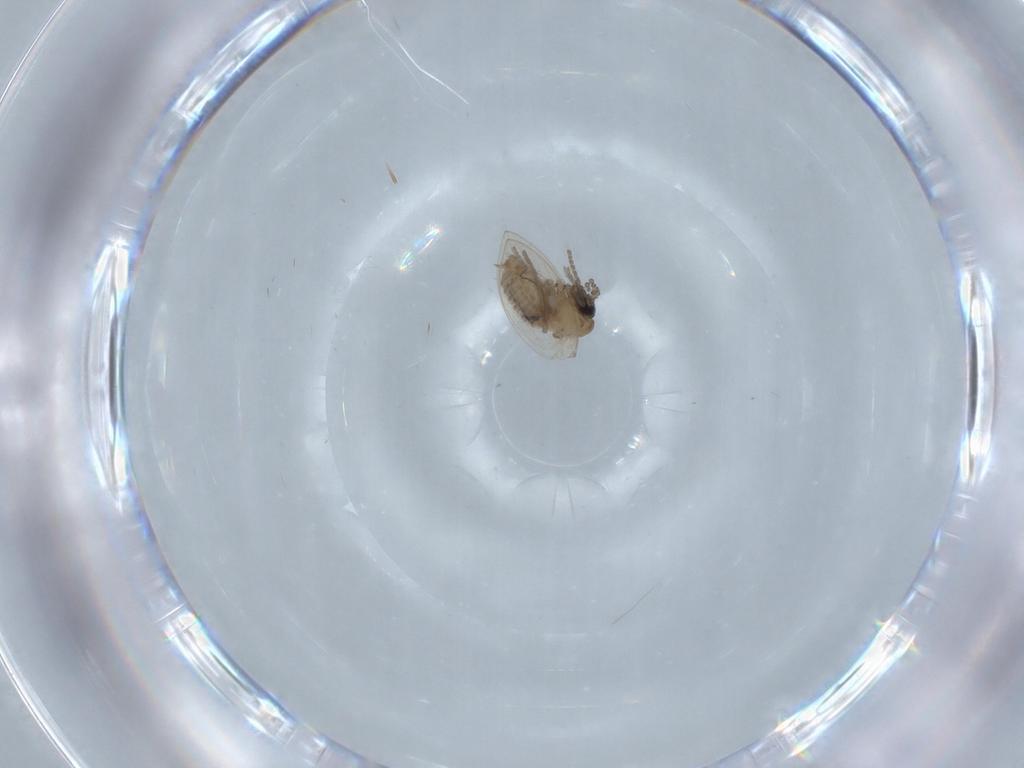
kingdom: Animalia
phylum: Arthropoda
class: Insecta
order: Diptera
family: Psychodidae
